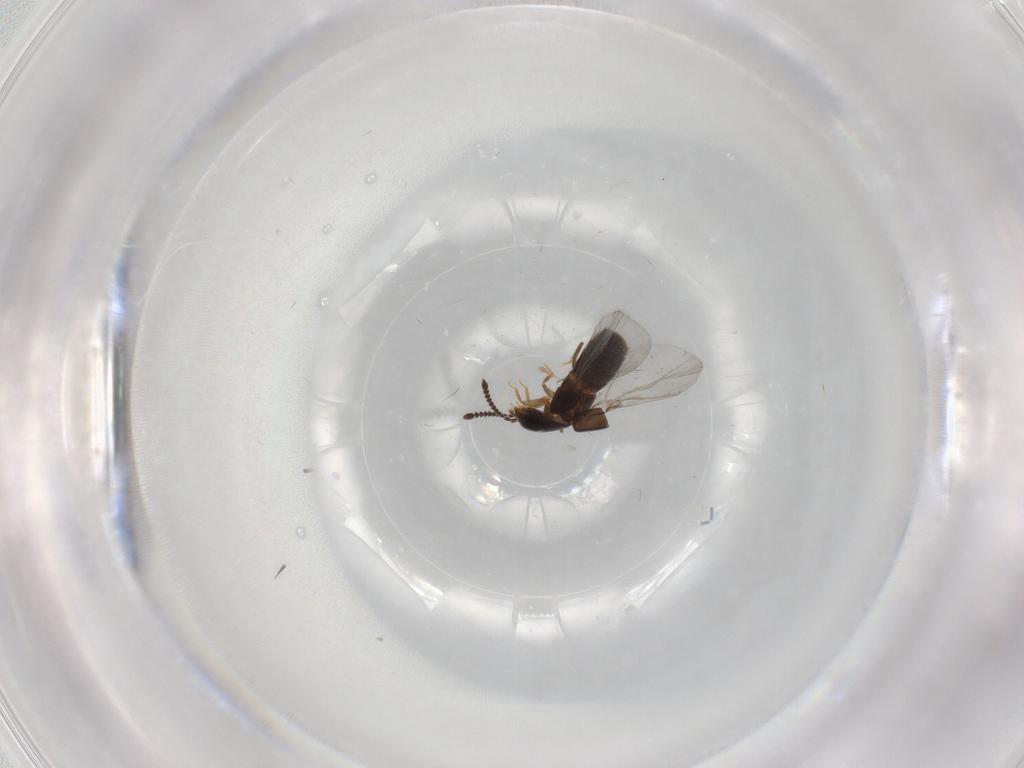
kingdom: Animalia
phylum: Arthropoda
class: Insecta
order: Coleoptera
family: Staphylinidae
